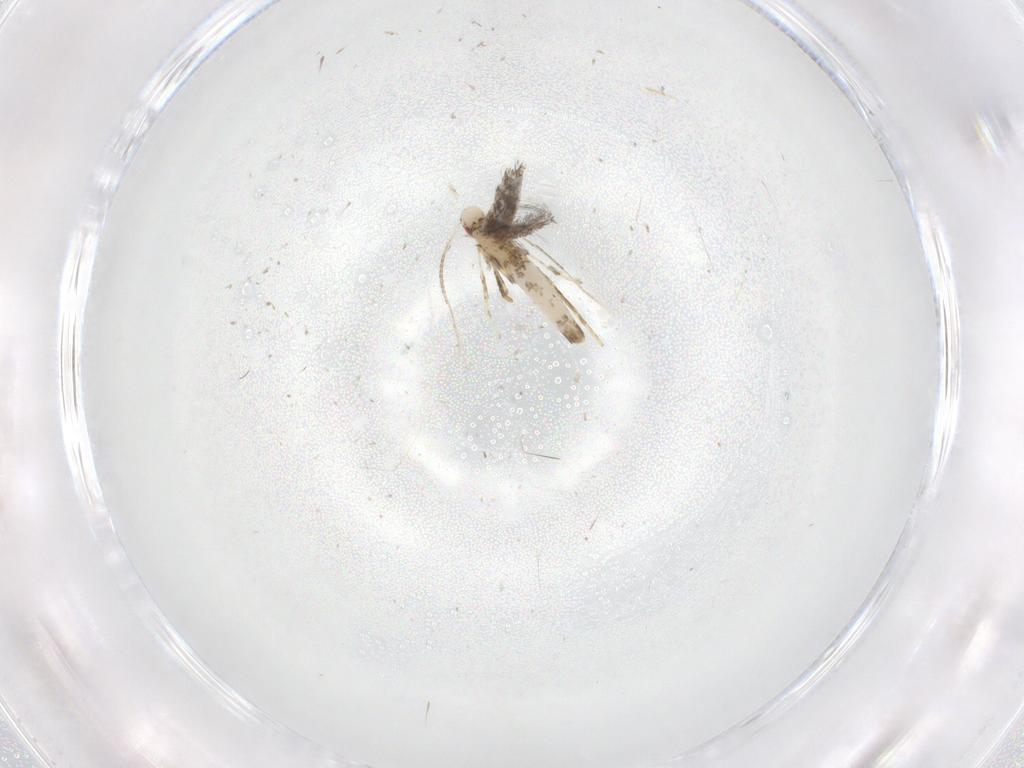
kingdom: Animalia
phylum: Arthropoda
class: Insecta
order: Lepidoptera
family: Gracillariidae
